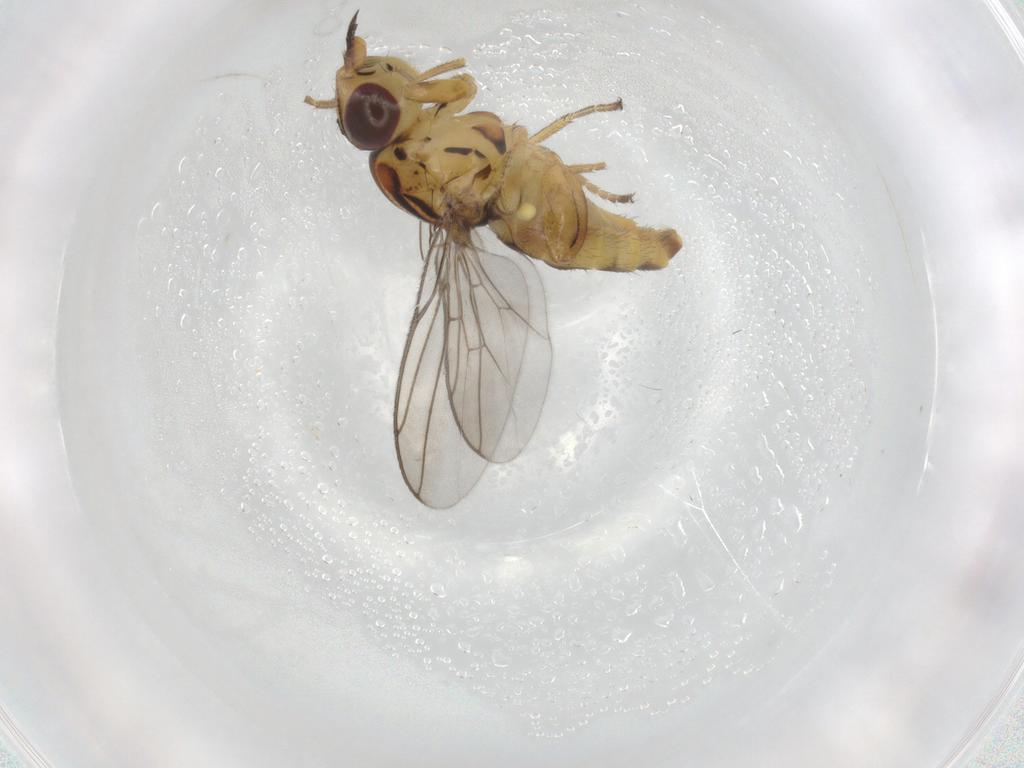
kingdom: Animalia
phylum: Arthropoda
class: Insecta
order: Diptera
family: Chloropidae
